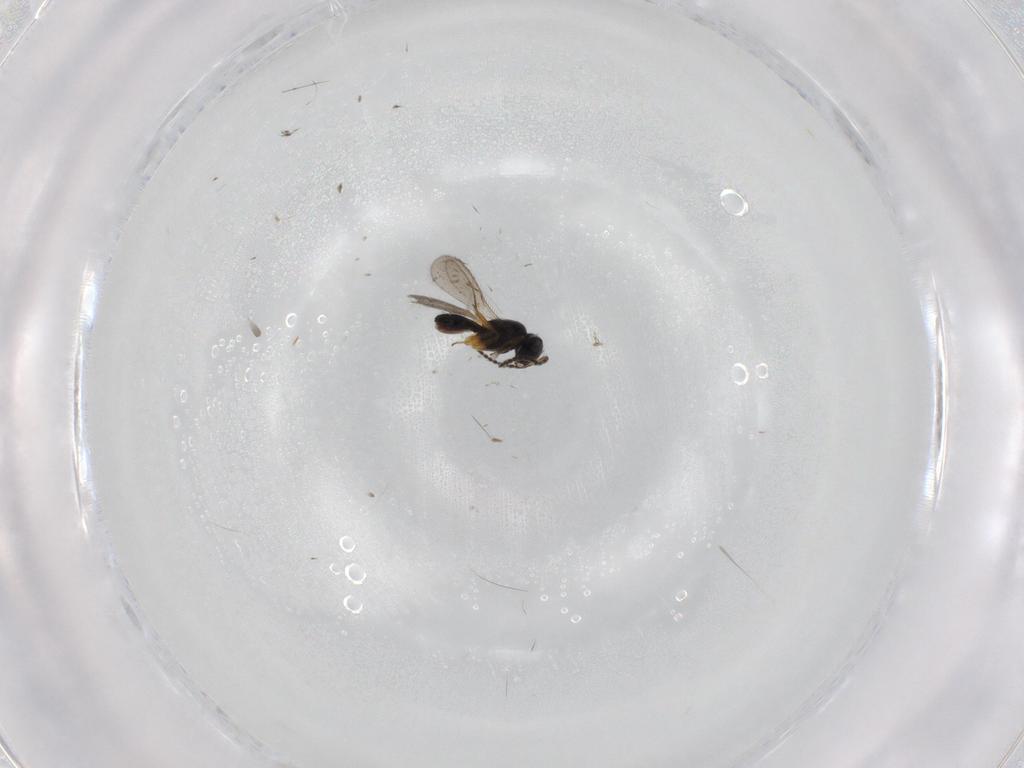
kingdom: Animalia
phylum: Arthropoda
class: Insecta
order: Hymenoptera
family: Scelionidae
